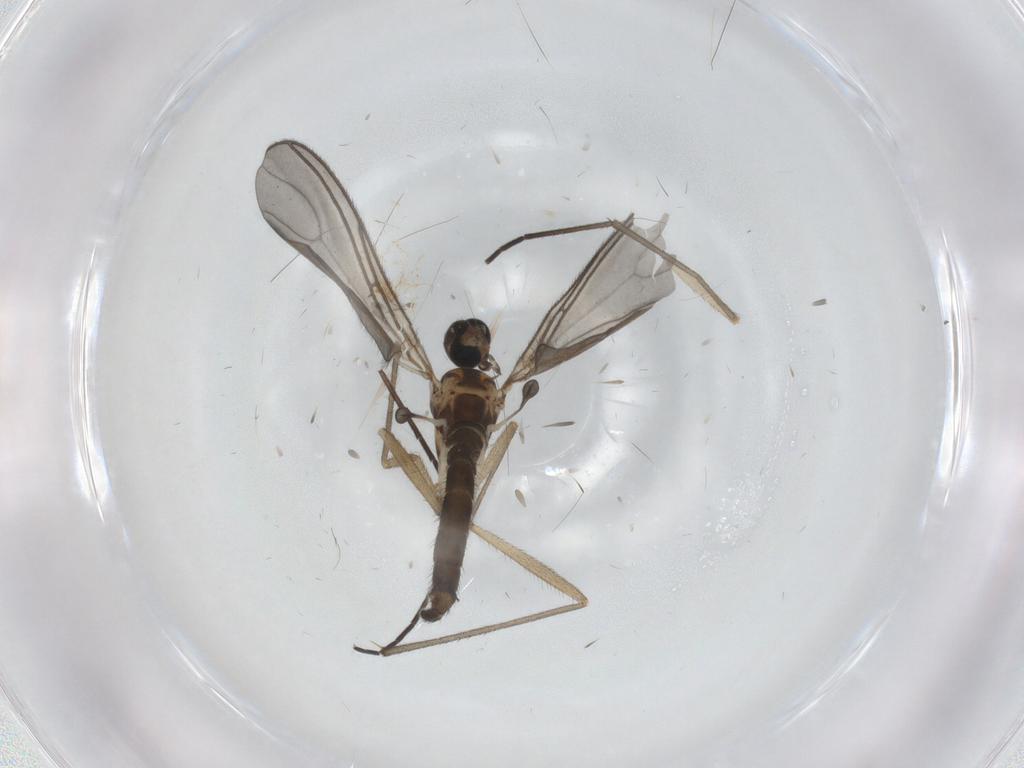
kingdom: Animalia
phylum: Arthropoda
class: Insecta
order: Diptera
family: Sciaridae
